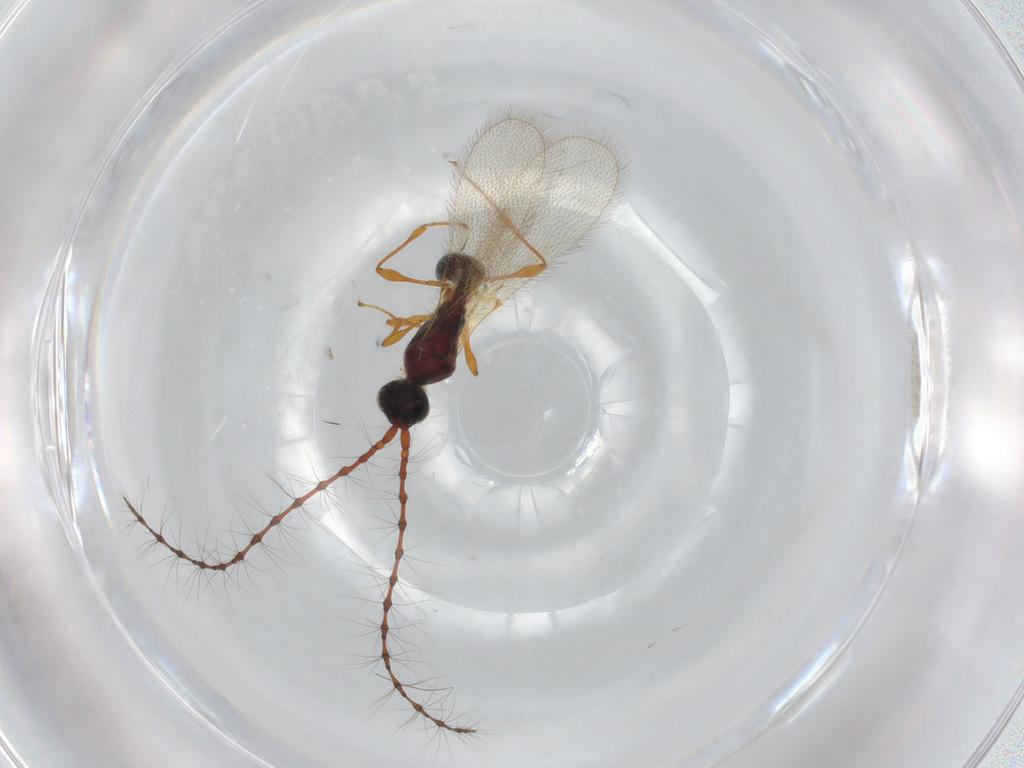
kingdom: Animalia
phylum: Arthropoda
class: Insecta
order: Hymenoptera
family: Diapriidae
